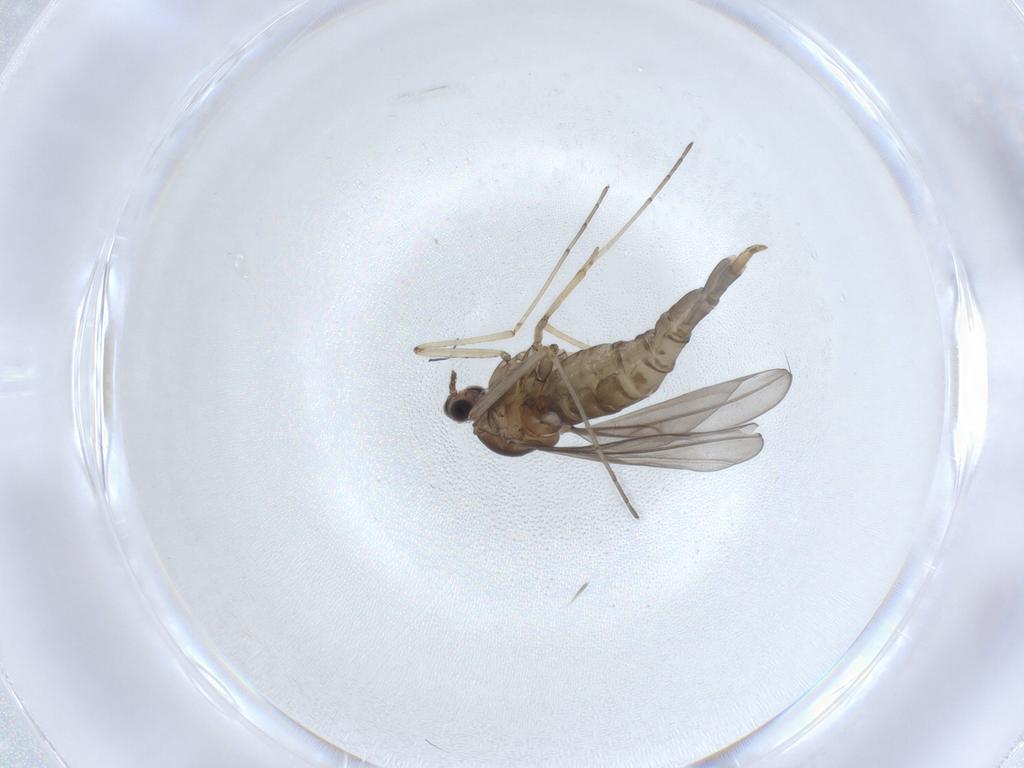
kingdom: Animalia
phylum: Arthropoda
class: Insecta
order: Diptera
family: Cecidomyiidae
